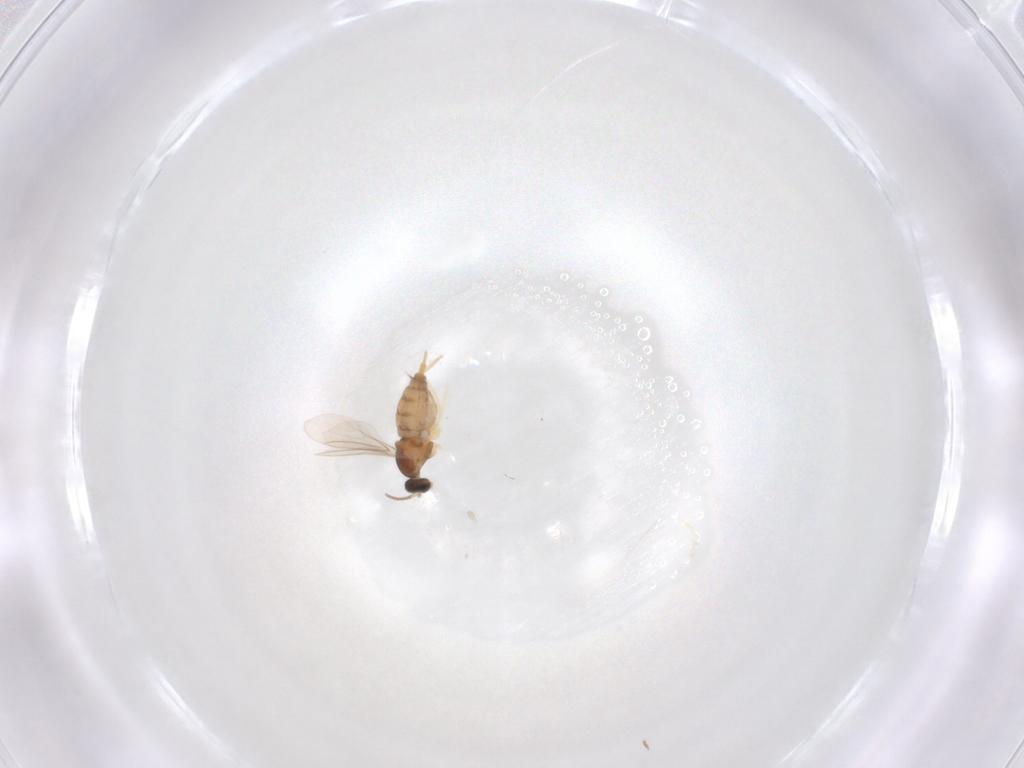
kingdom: Animalia
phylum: Arthropoda
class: Insecta
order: Diptera
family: Cecidomyiidae
